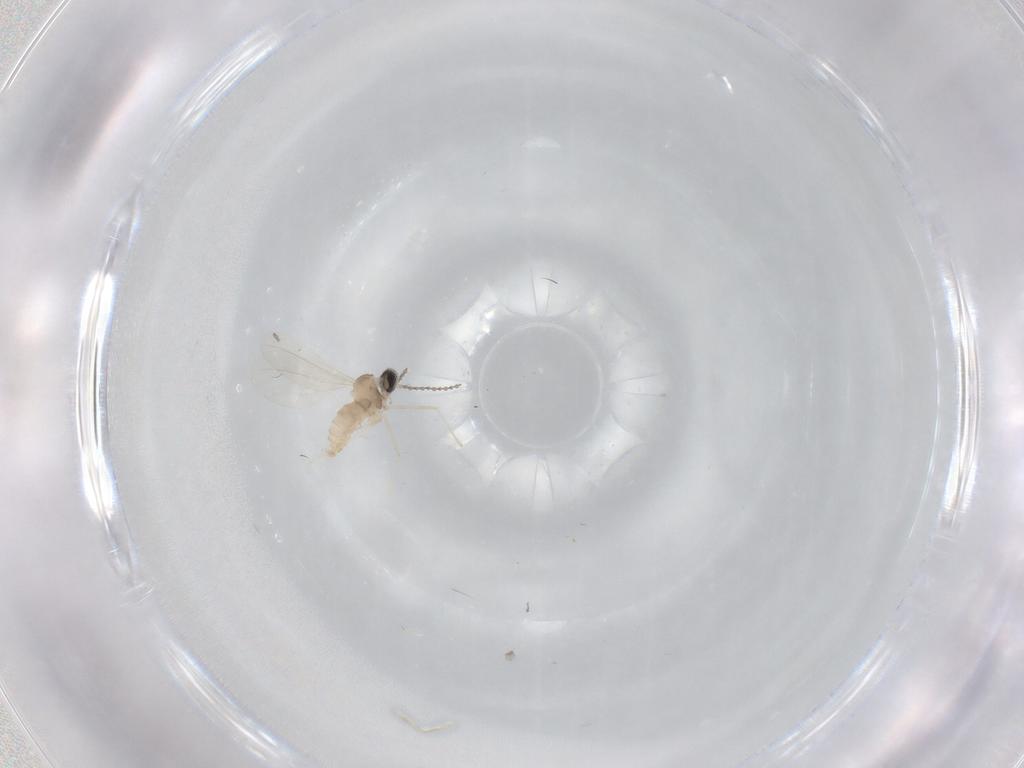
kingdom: Animalia
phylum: Arthropoda
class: Insecta
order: Diptera
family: Cecidomyiidae
